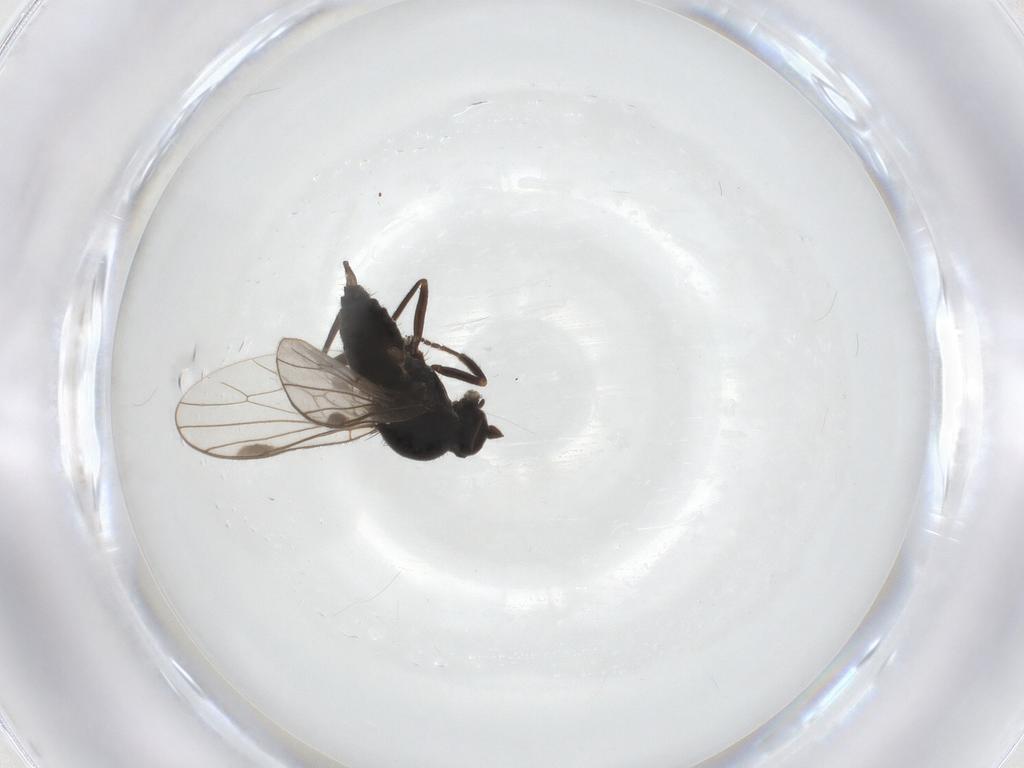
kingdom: Animalia
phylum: Arthropoda
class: Insecta
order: Diptera
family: Hybotidae
